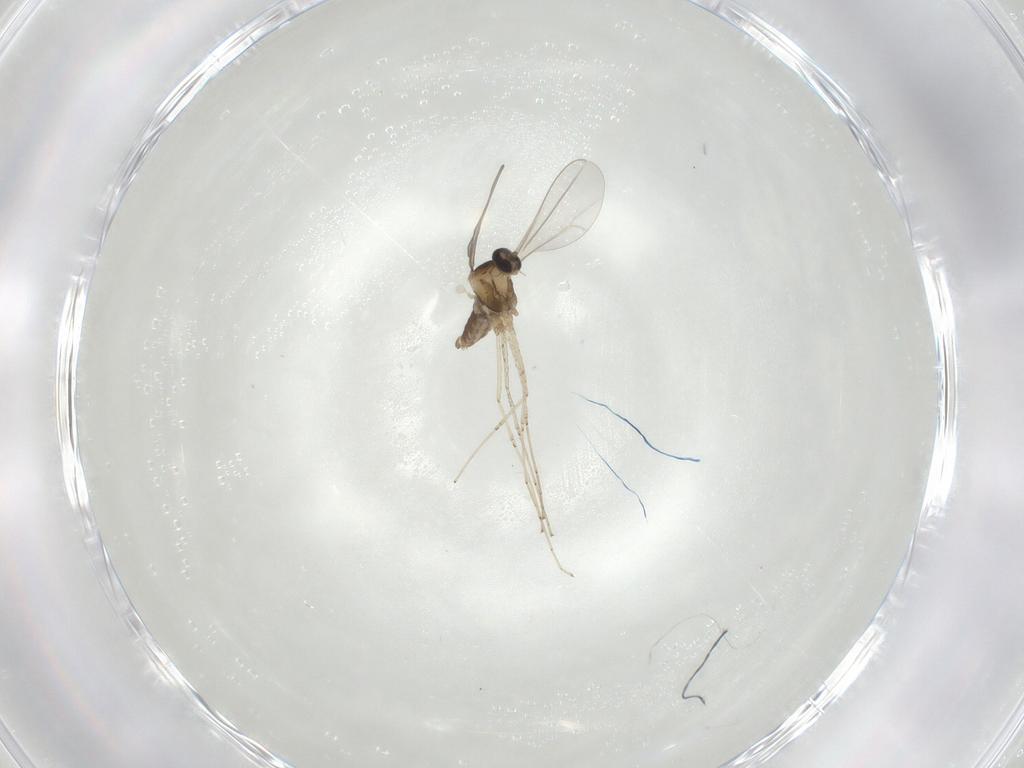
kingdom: Animalia
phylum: Arthropoda
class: Insecta
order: Diptera
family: Cecidomyiidae
